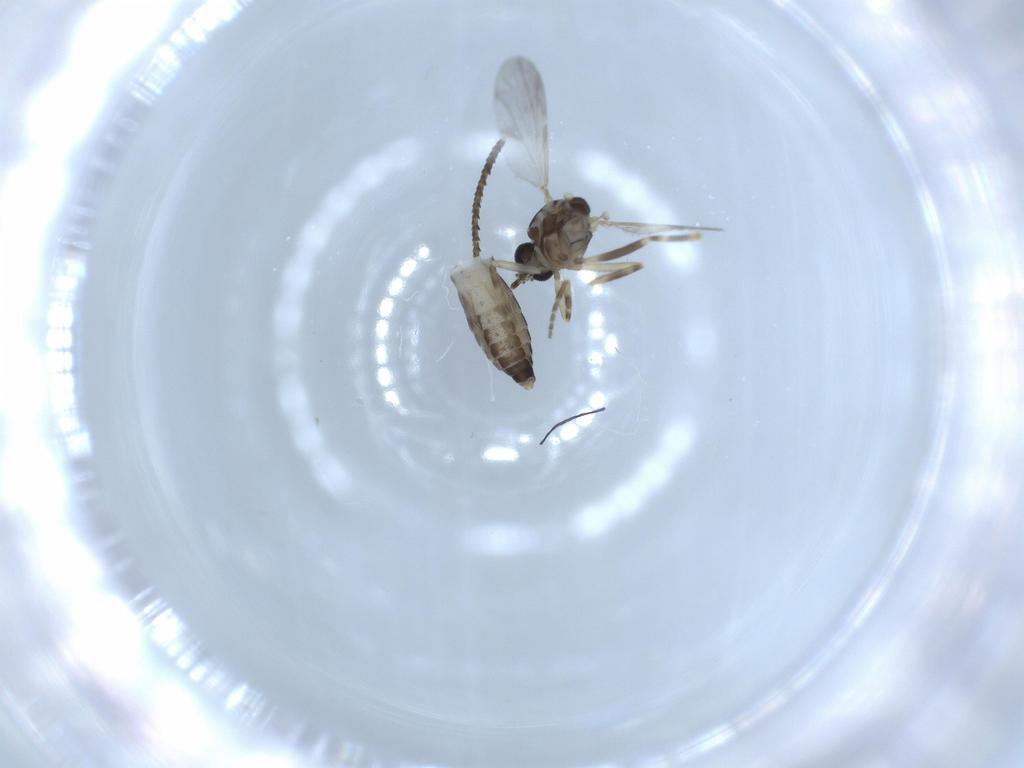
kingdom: Animalia
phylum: Arthropoda
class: Insecta
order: Diptera
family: Ceratopogonidae
